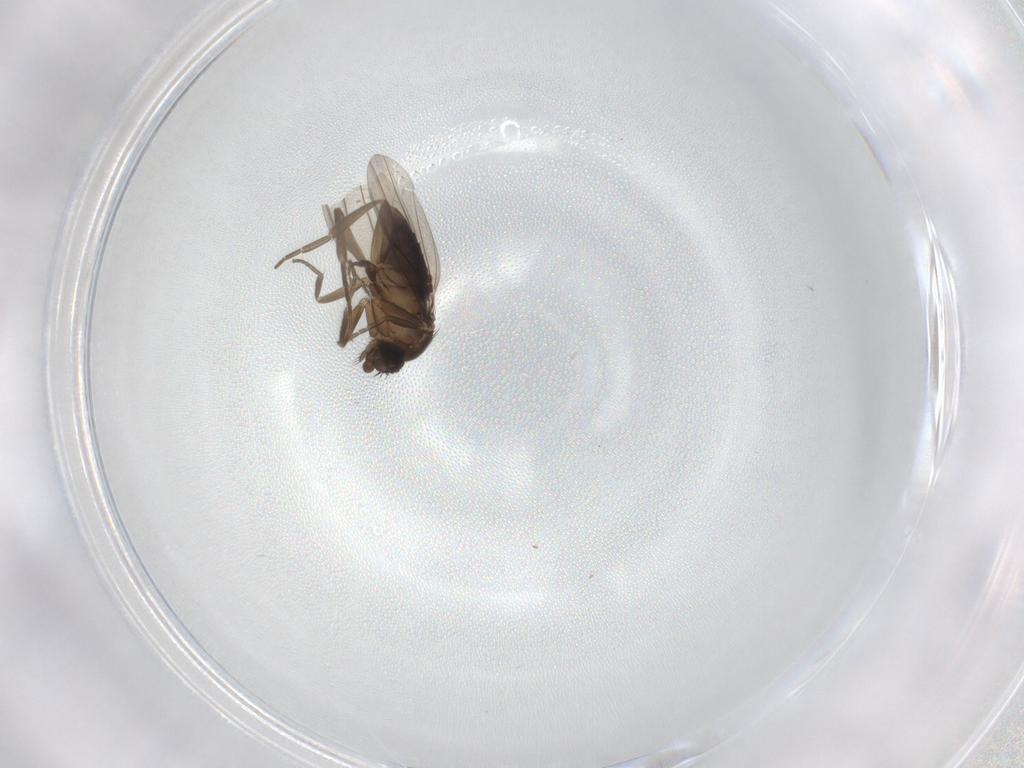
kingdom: Animalia
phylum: Arthropoda
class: Insecta
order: Diptera
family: Phoridae
